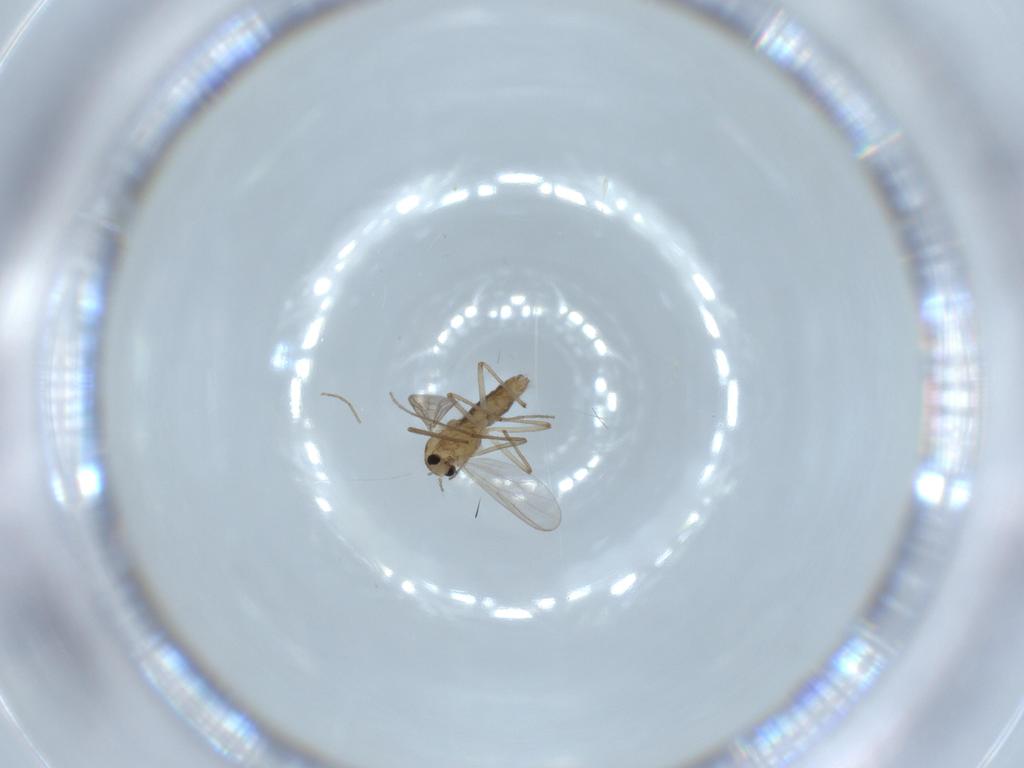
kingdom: Animalia
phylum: Arthropoda
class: Insecta
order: Diptera
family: Chironomidae
